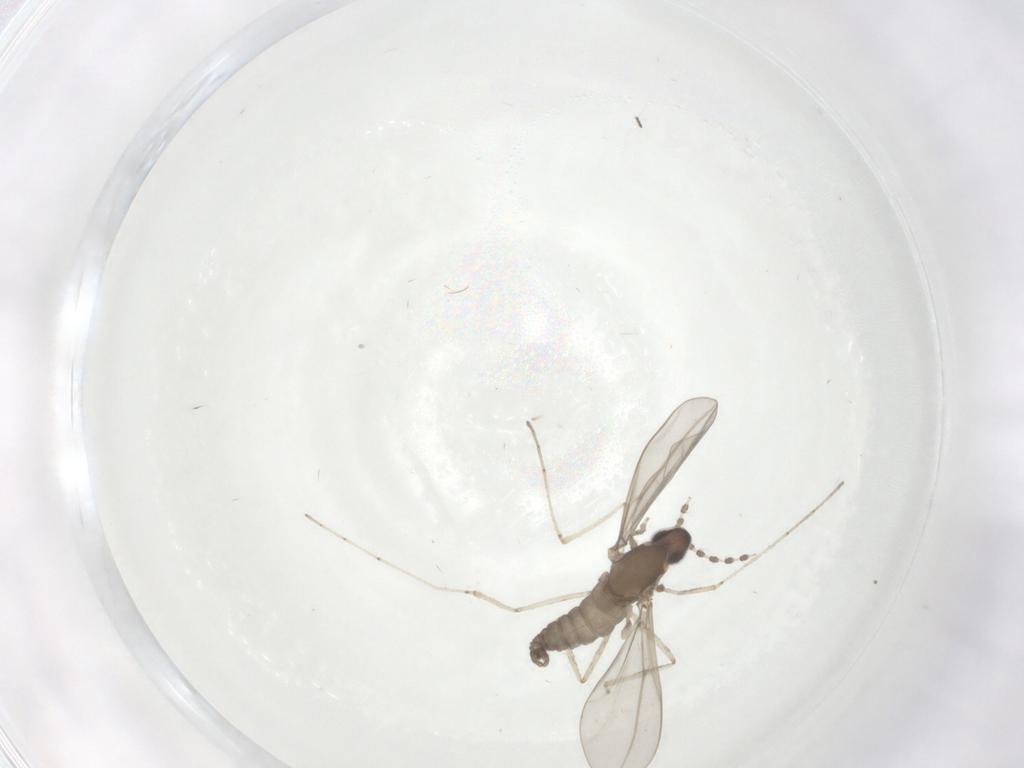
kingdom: Animalia
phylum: Arthropoda
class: Insecta
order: Diptera
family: Cecidomyiidae
